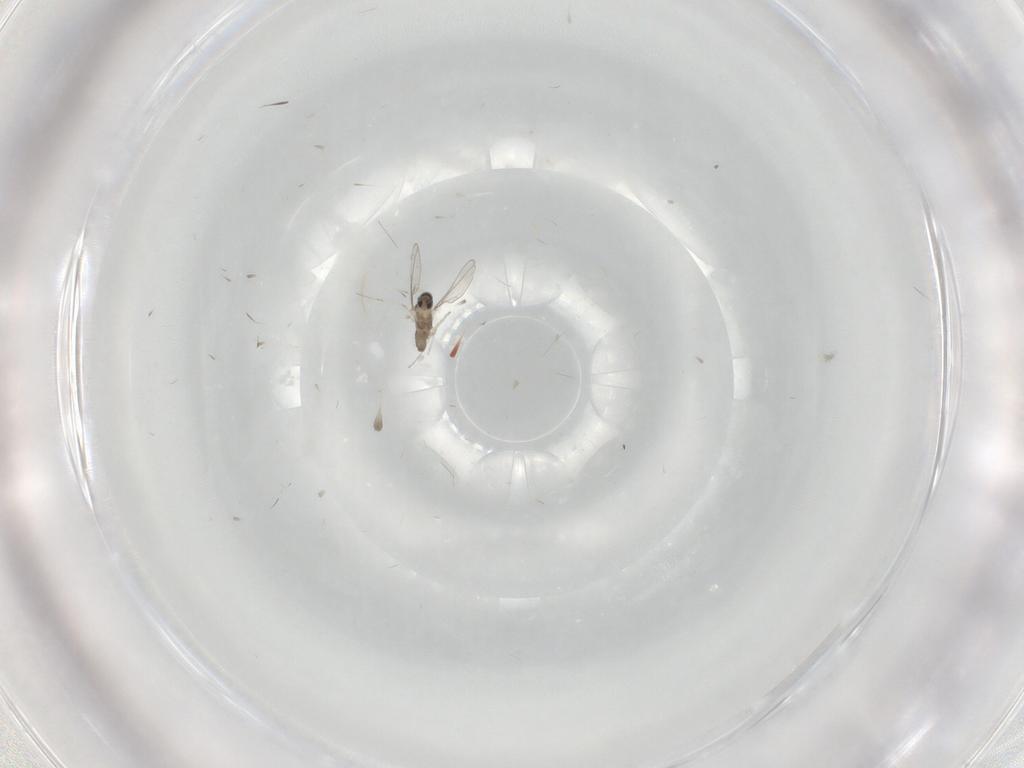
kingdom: Animalia
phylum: Arthropoda
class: Insecta
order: Diptera
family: Cecidomyiidae
